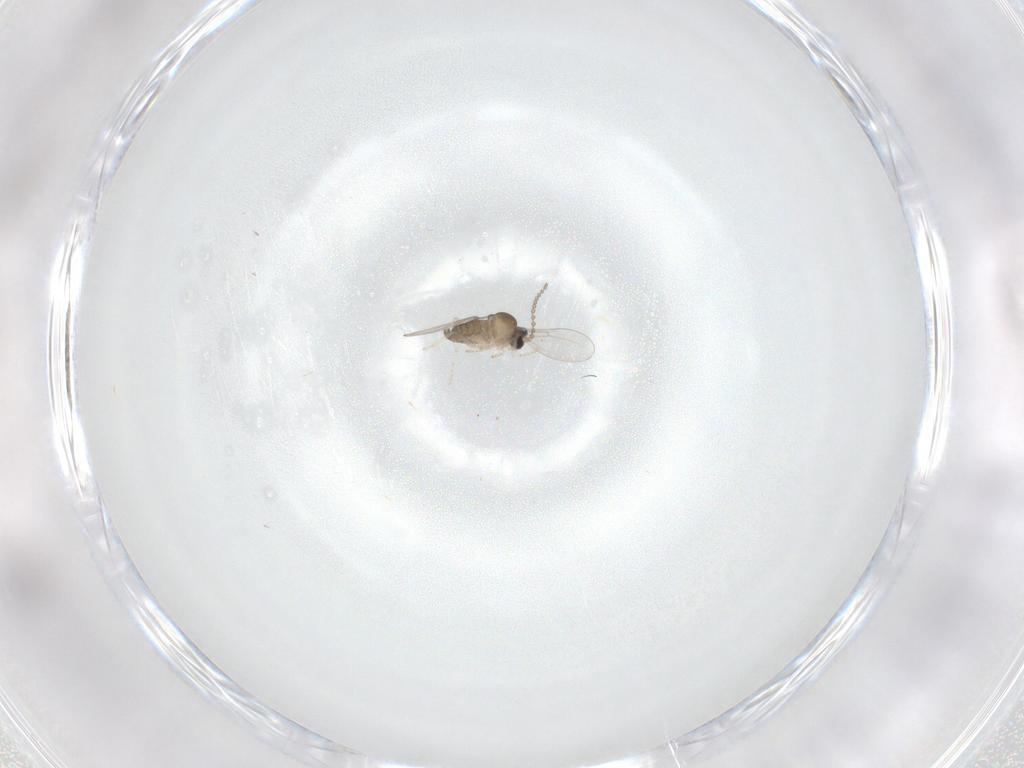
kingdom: Animalia
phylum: Arthropoda
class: Insecta
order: Diptera
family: Cecidomyiidae
